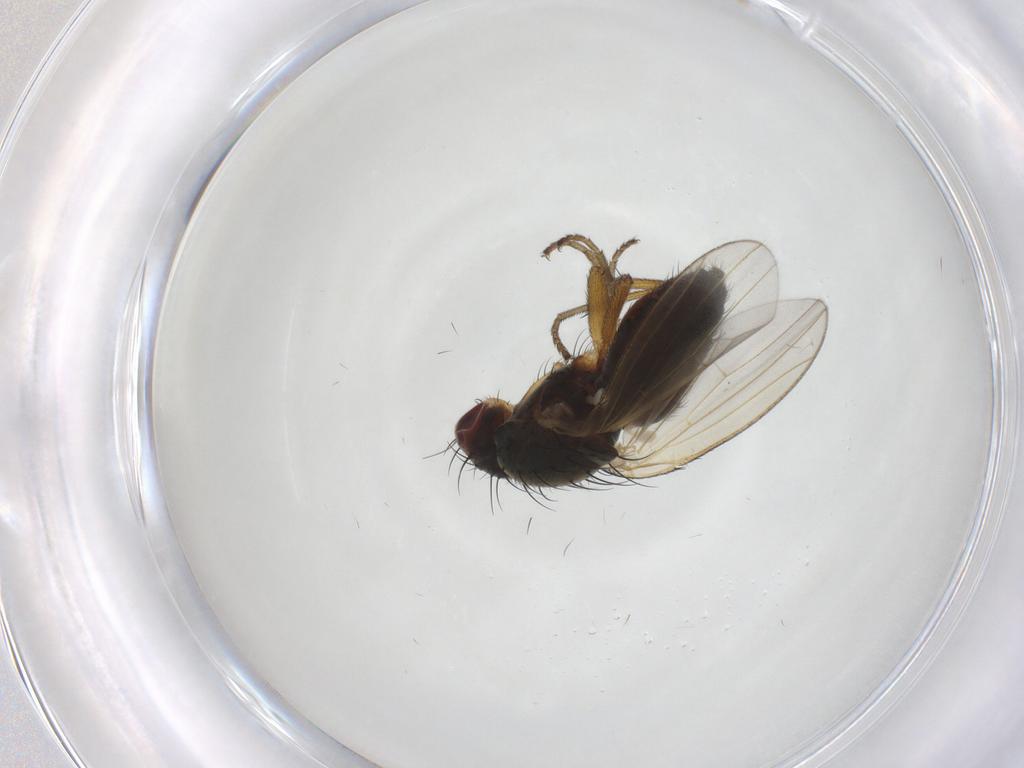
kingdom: Animalia
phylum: Arthropoda
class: Insecta
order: Diptera
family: Heleomyzidae
